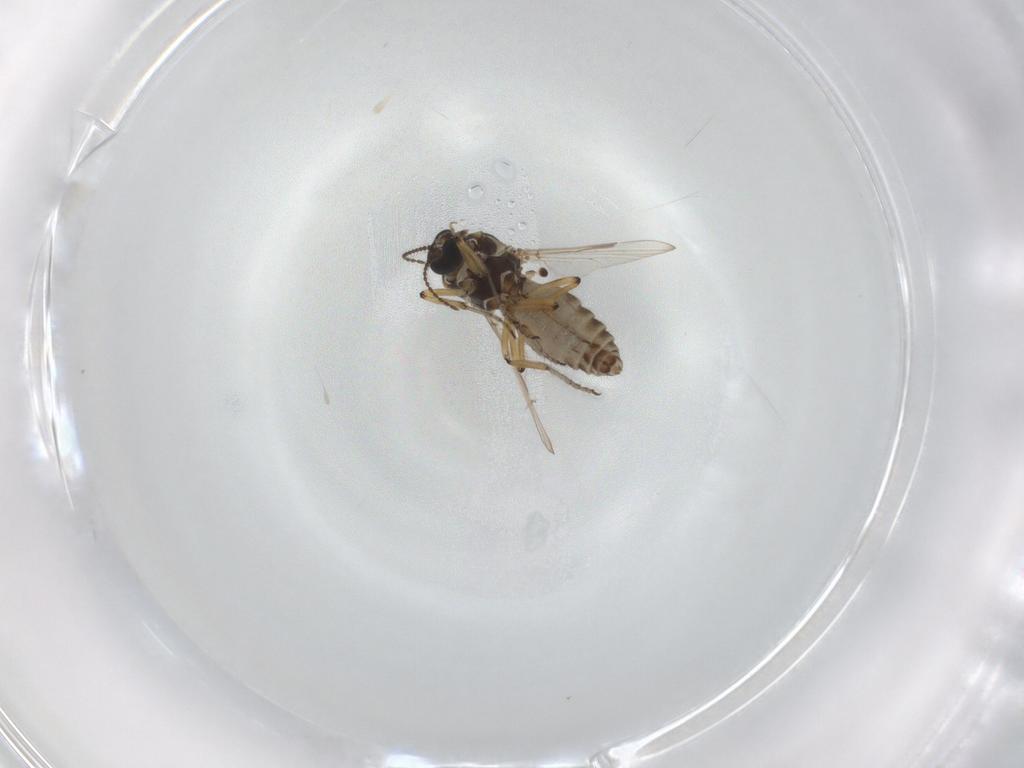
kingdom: Animalia
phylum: Arthropoda
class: Insecta
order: Diptera
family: Ceratopogonidae
